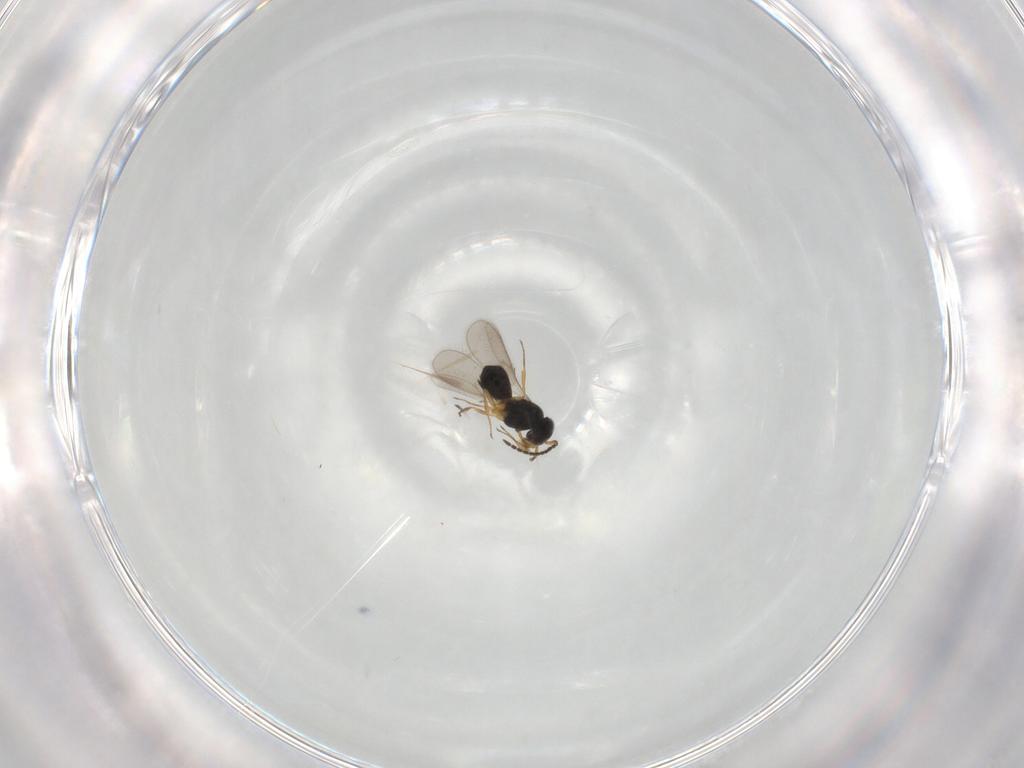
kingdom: Animalia
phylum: Arthropoda
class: Insecta
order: Hymenoptera
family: Scelionidae
